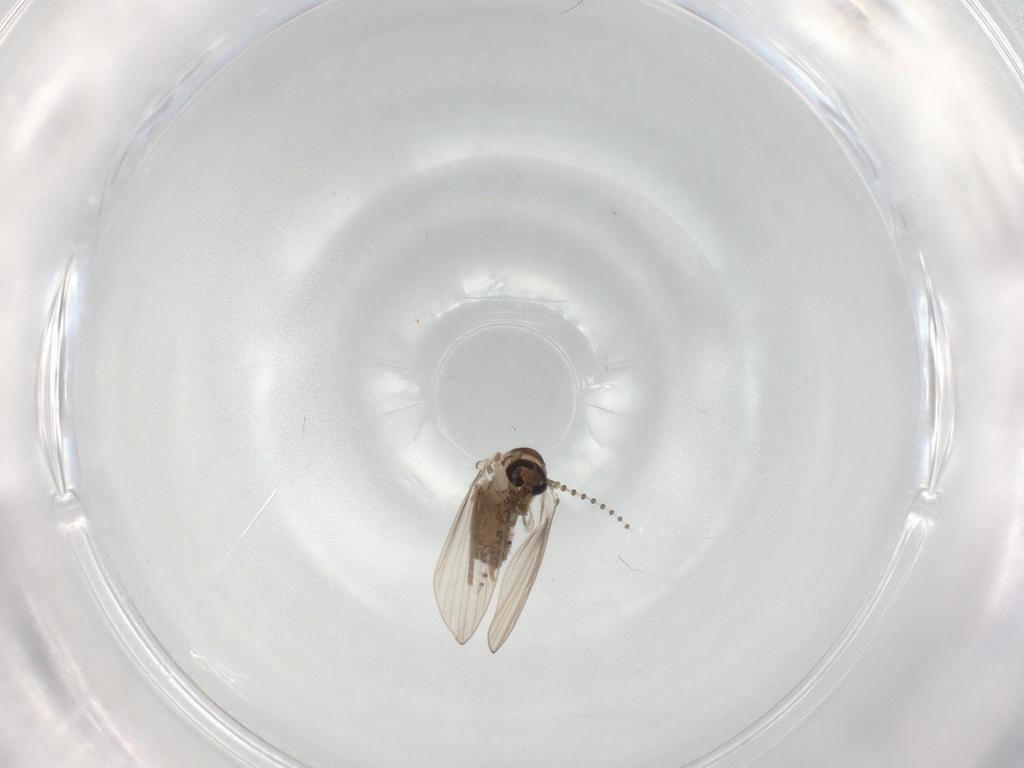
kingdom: Animalia
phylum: Arthropoda
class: Insecta
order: Diptera
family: Psychodidae
